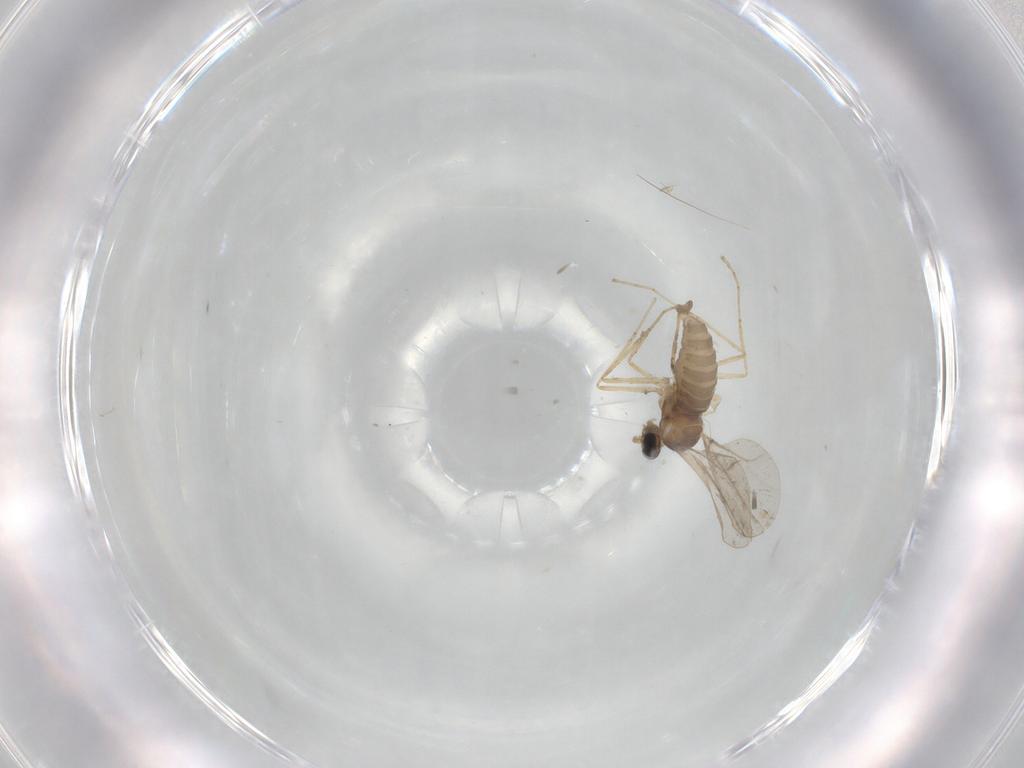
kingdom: Animalia
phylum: Arthropoda
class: Insecta
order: Diptera
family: Cecidomyiidae
